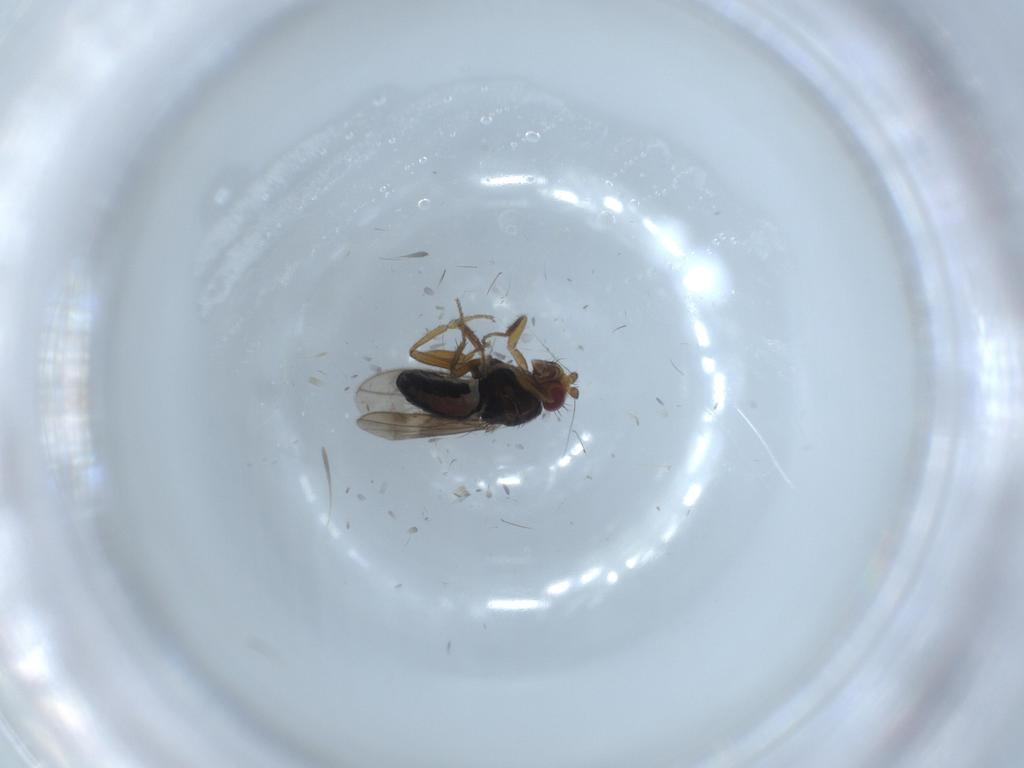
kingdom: Animalia
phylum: Arthropoda
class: Insecta
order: Diptera
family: Sphaeroceridae
